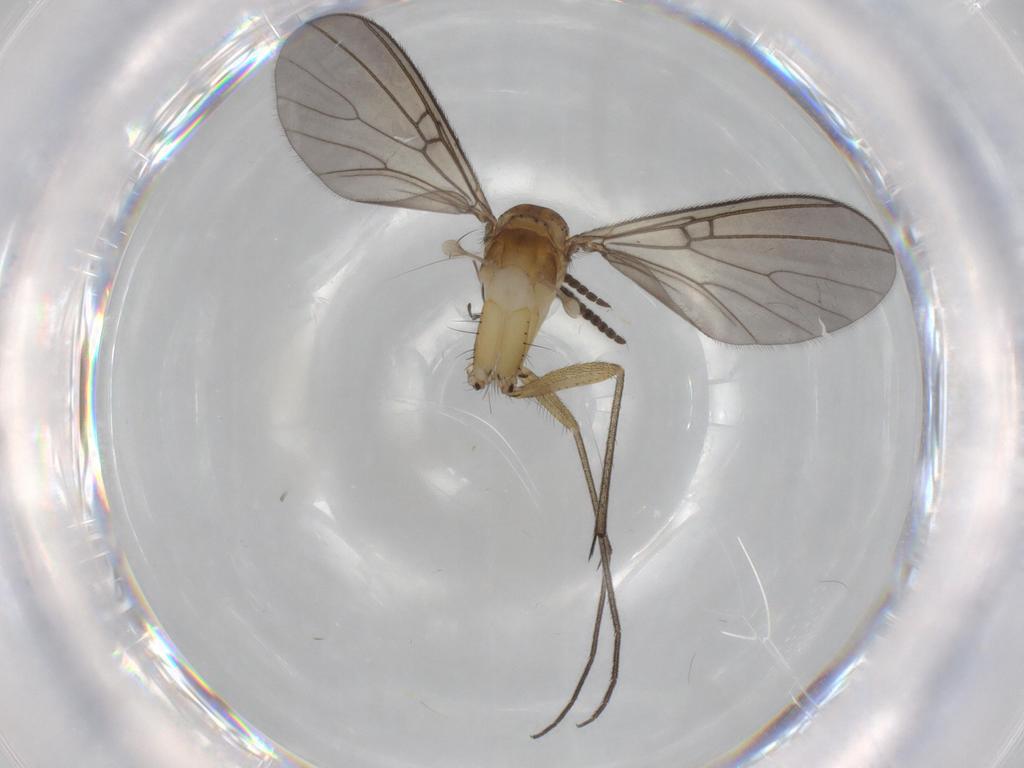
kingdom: Animalia
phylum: Arthropoda
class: Insecta
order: Diptera
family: Sciaridae
